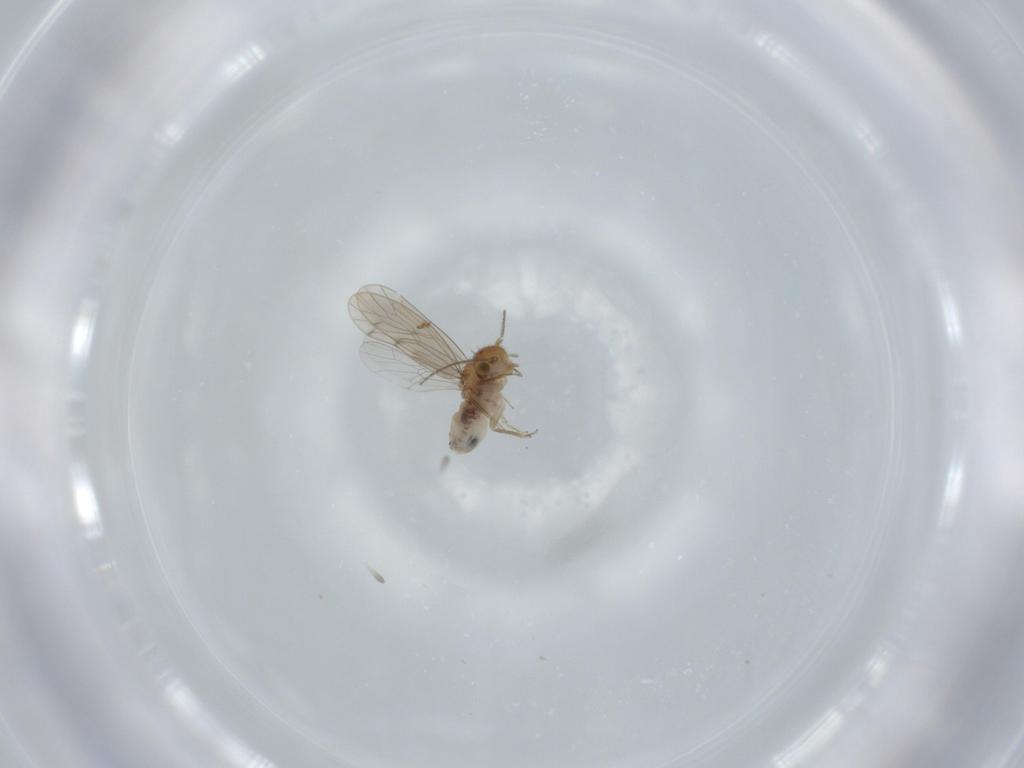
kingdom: Animalia
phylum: Arthropoda
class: Insecta
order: Psocodea
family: Ectopsocidae
